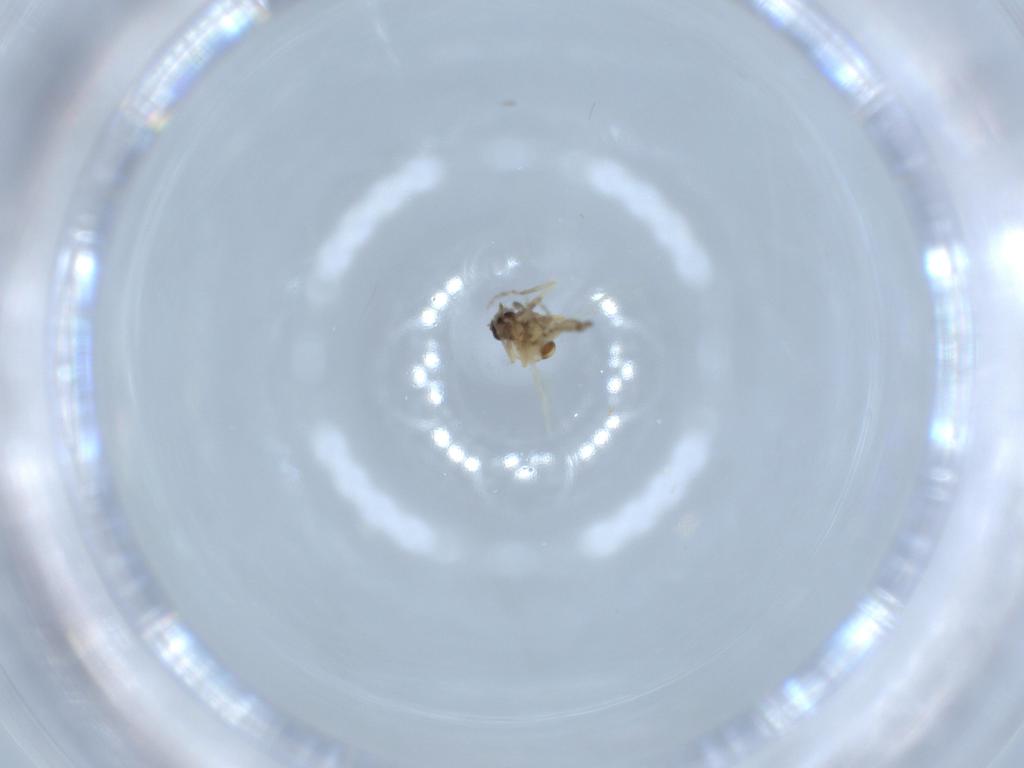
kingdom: Animalia
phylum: Arthropoda
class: Insecta
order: Diptera
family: Ceratopogonidae
